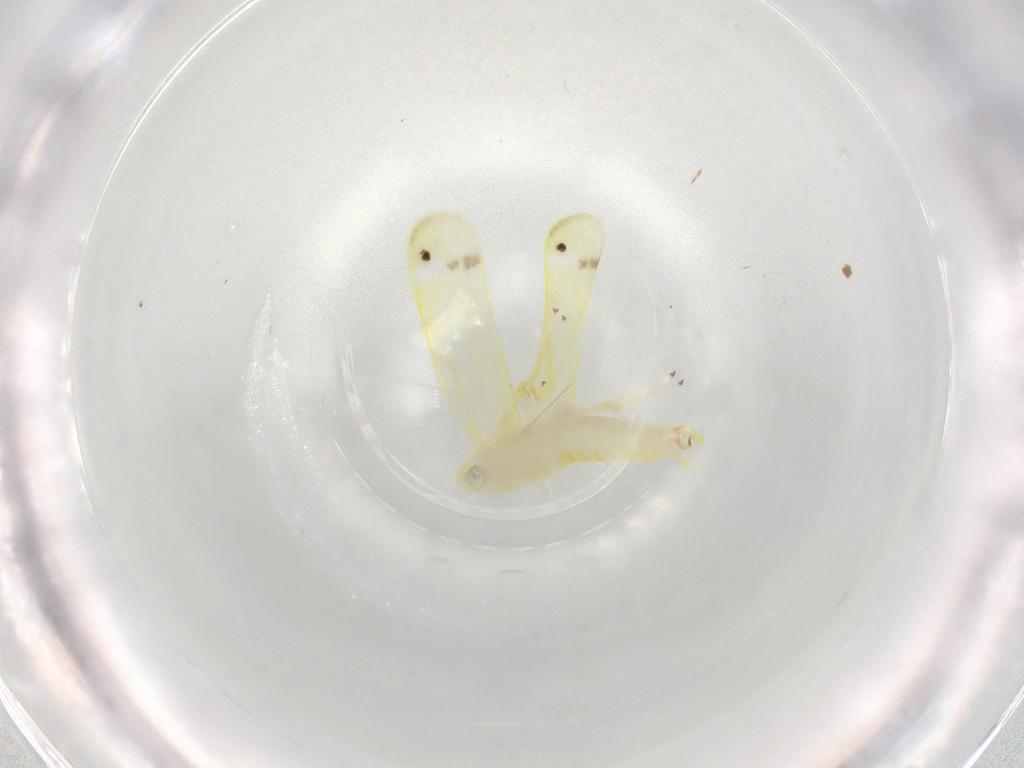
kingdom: Animalia
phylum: Arthropoda
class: Insecta
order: Hemiptera
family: Cicadellidae
